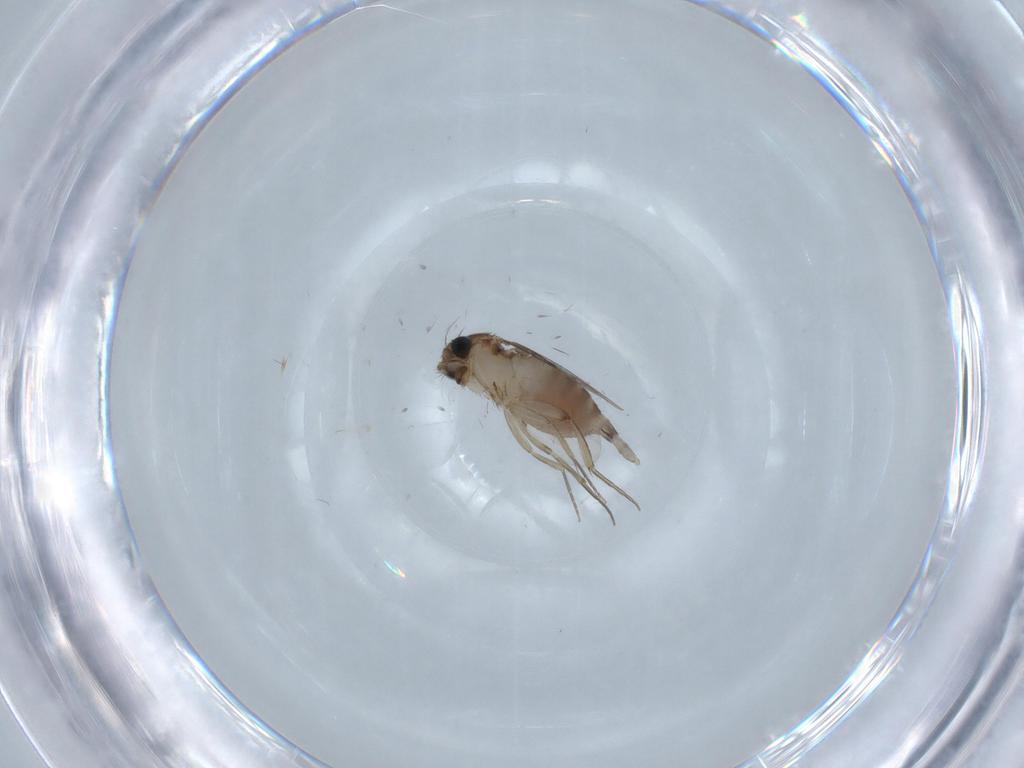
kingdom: Animalia
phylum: Arthropoda
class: Insecta
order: Diptera
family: Phoridae
